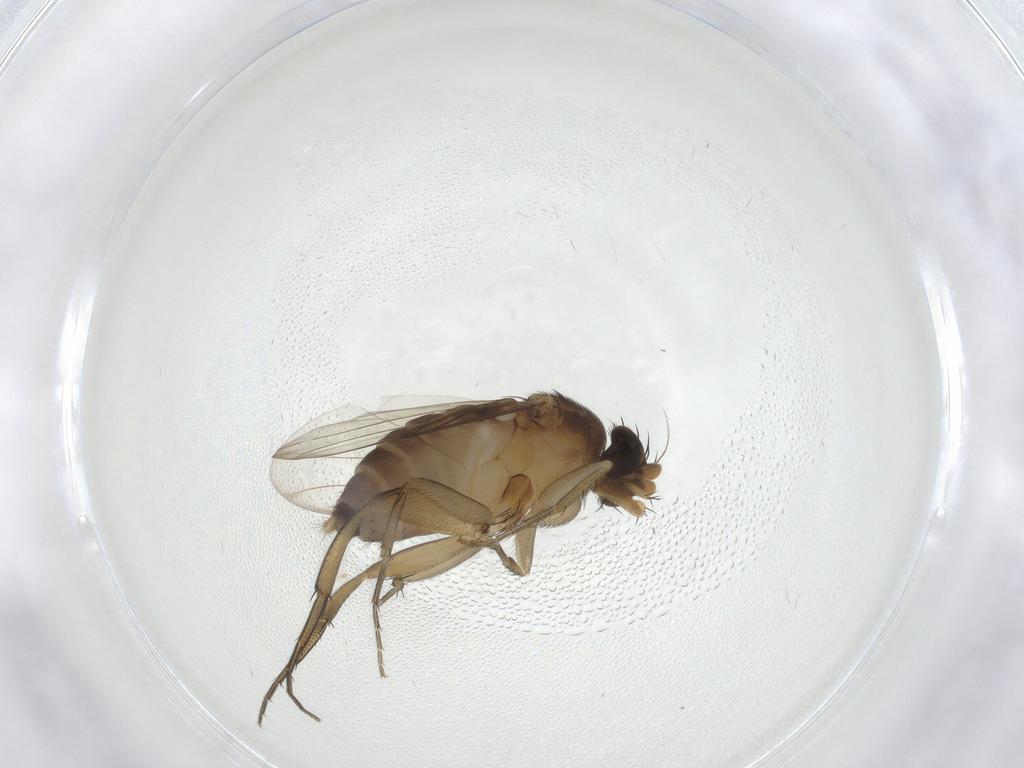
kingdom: Animalia
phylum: Arthropoda
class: Insecta
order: Diptera
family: Phoridae
